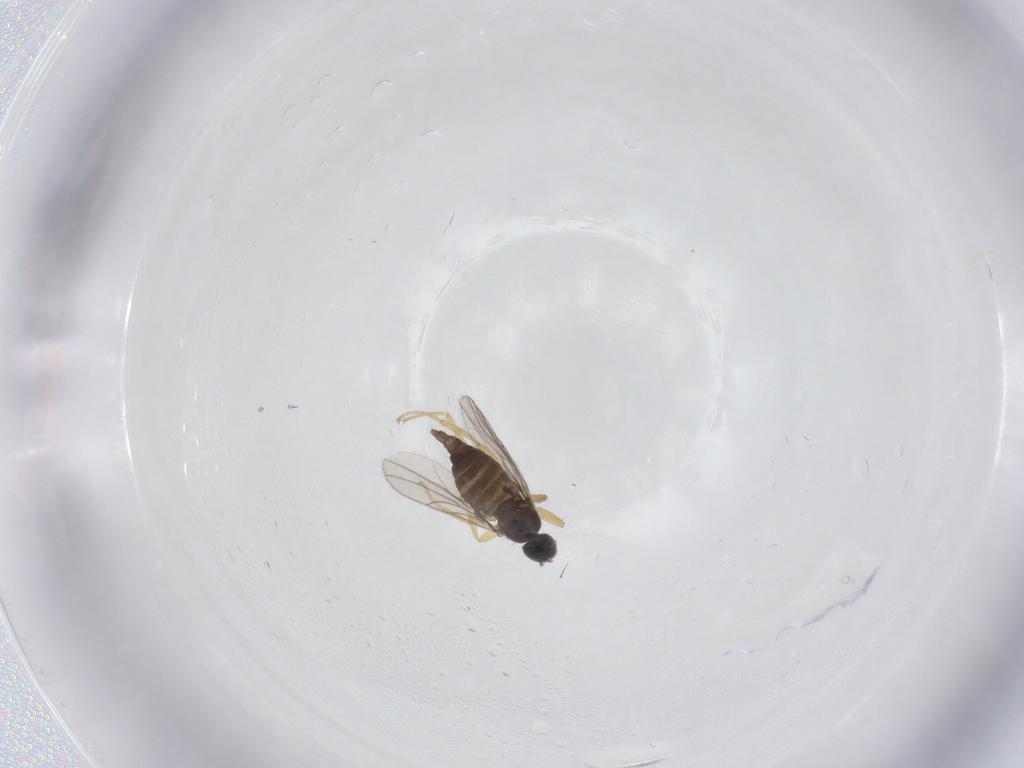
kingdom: Animalia
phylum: Arthropoda
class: Insecta
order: Diptera
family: Hybotidae
